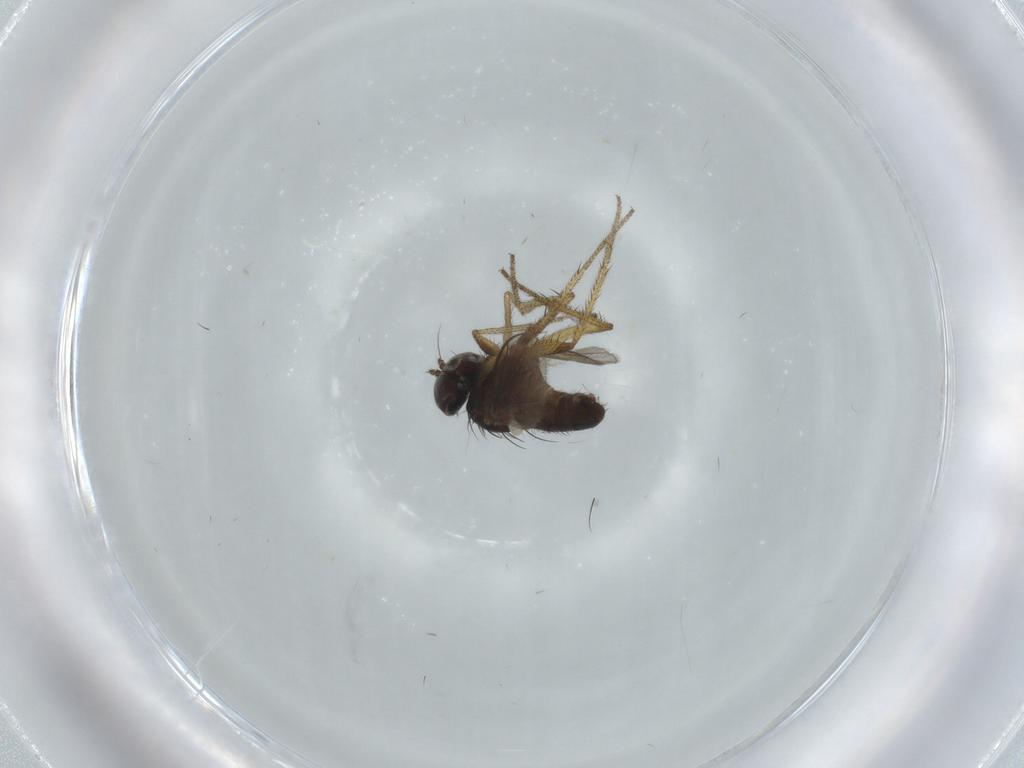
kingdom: Animalia
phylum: Arthropoda
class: Insecta
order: Diptera
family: Dolichopodidae
